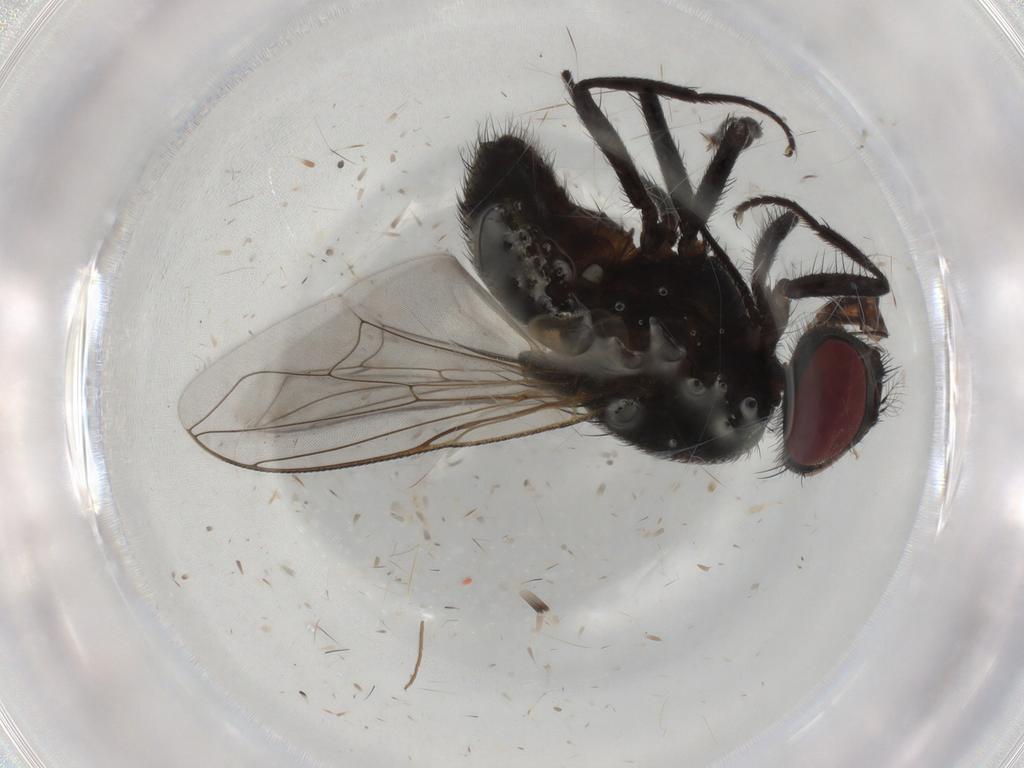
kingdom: Animalia
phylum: Arthropoda
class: Insecta
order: Diptera
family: Muscidae
